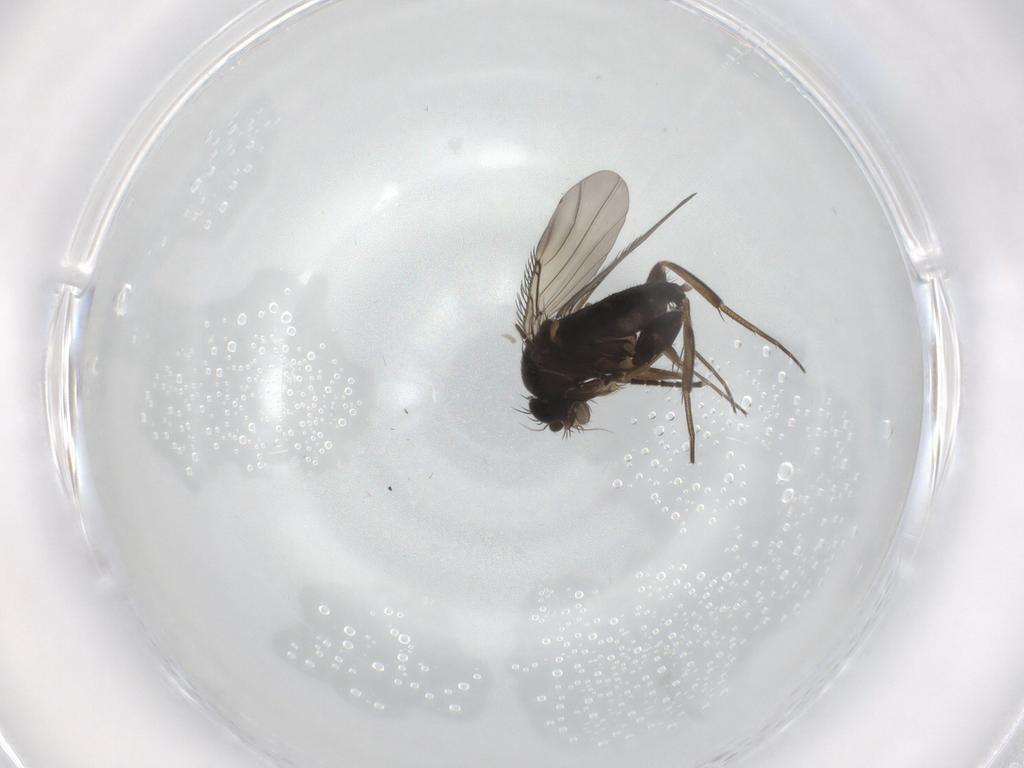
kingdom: Animalia
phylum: Arthropoda
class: Insecta
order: Diptera
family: Phoridae
